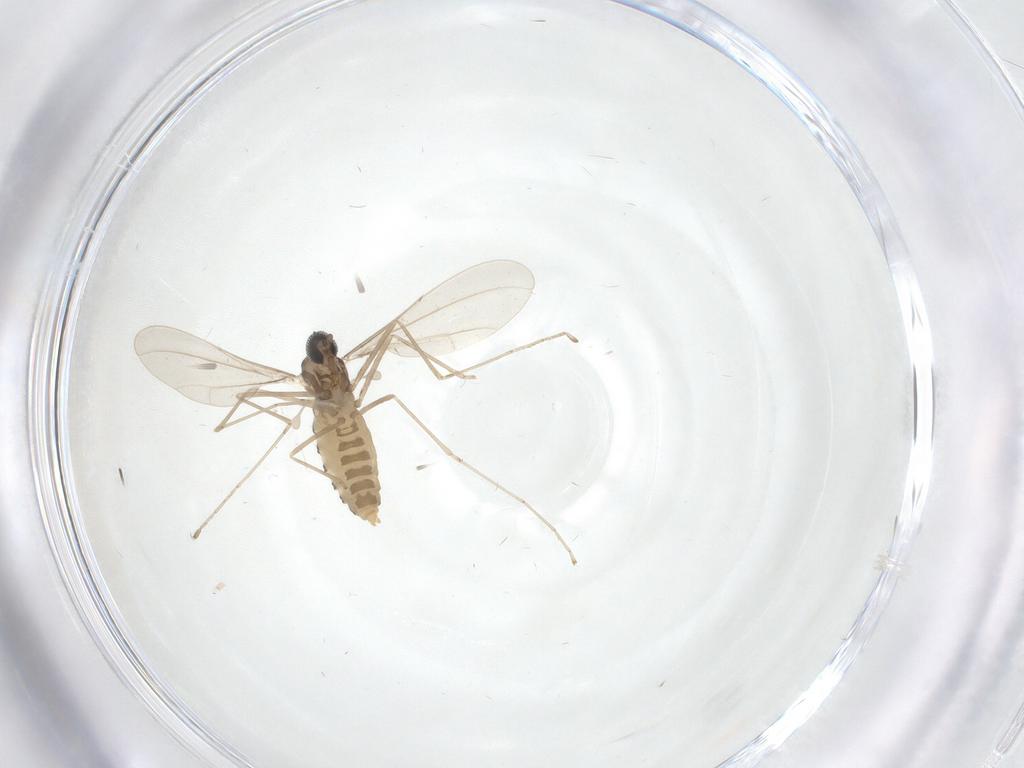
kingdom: Animalia
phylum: Arthropoda
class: Insecta
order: Diptera
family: Cecidomyiidae
